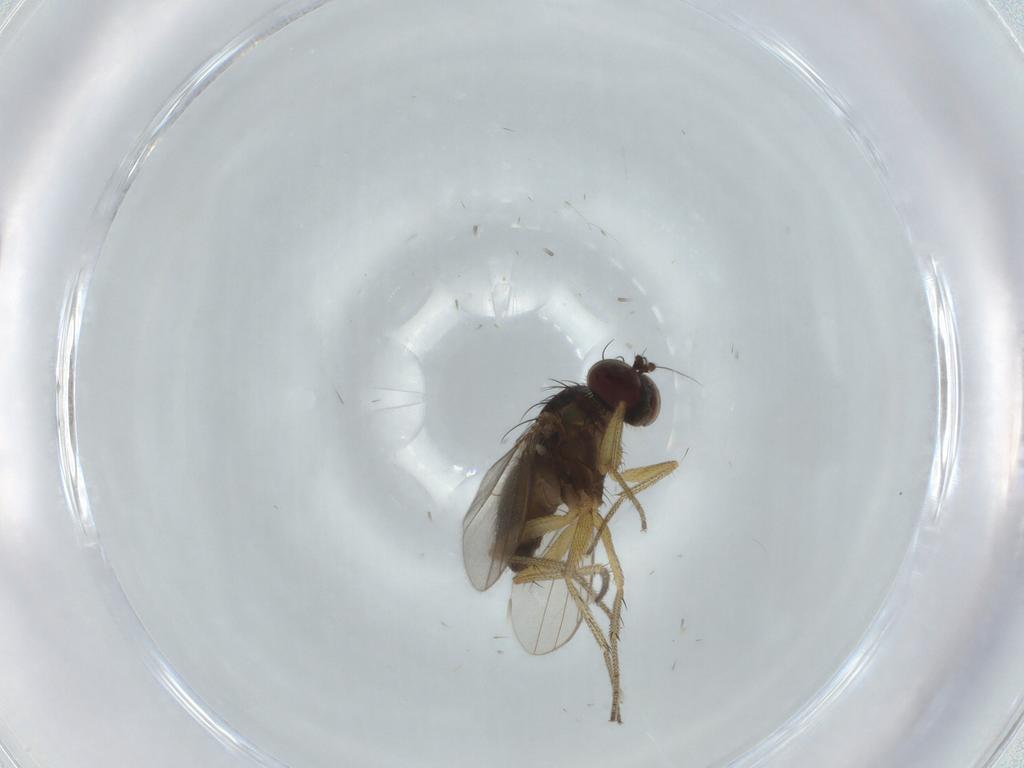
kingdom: Animalia
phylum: Arthropoda
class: Insecta
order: Diptera
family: Dolichopodidae
